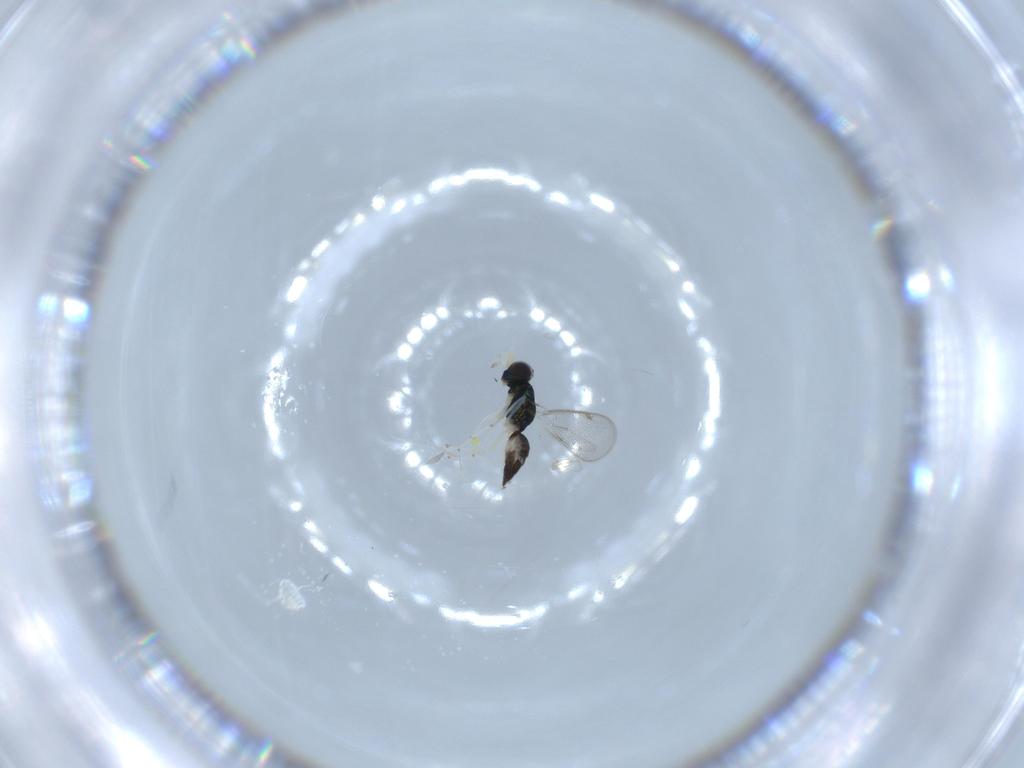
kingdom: Animalia
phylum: Arthropoda
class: Insecta
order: Hymenoptera
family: Eulophidae
